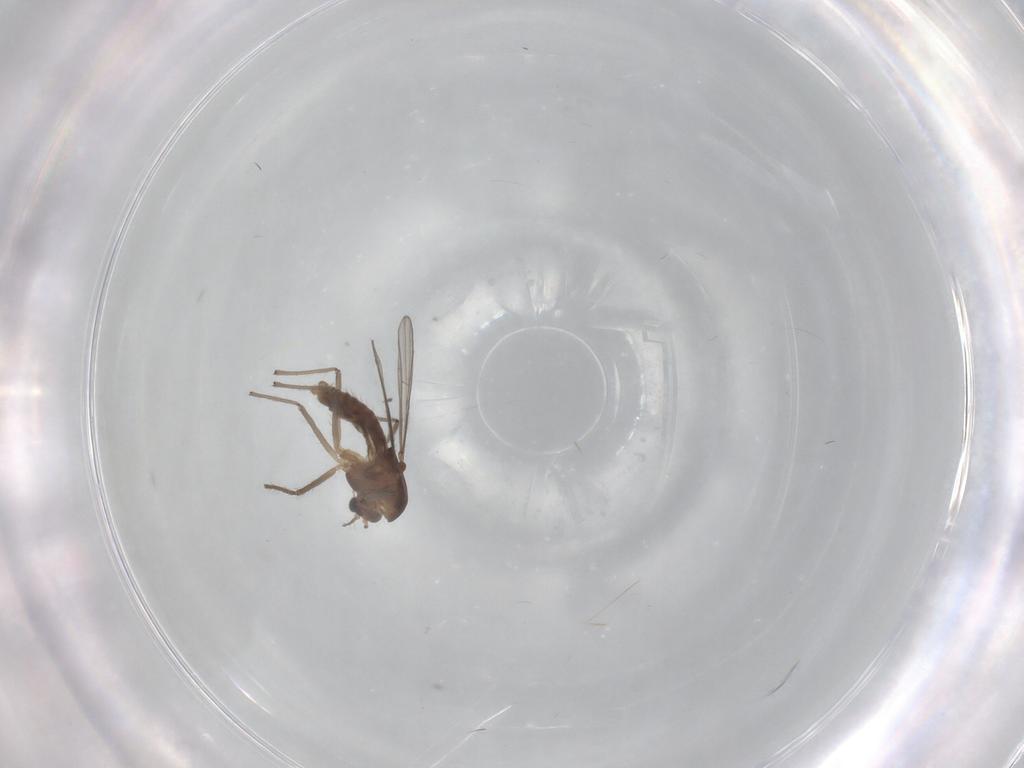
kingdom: Animalia
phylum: Arthropoda
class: Insecta
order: Diptera
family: Chironomidae
